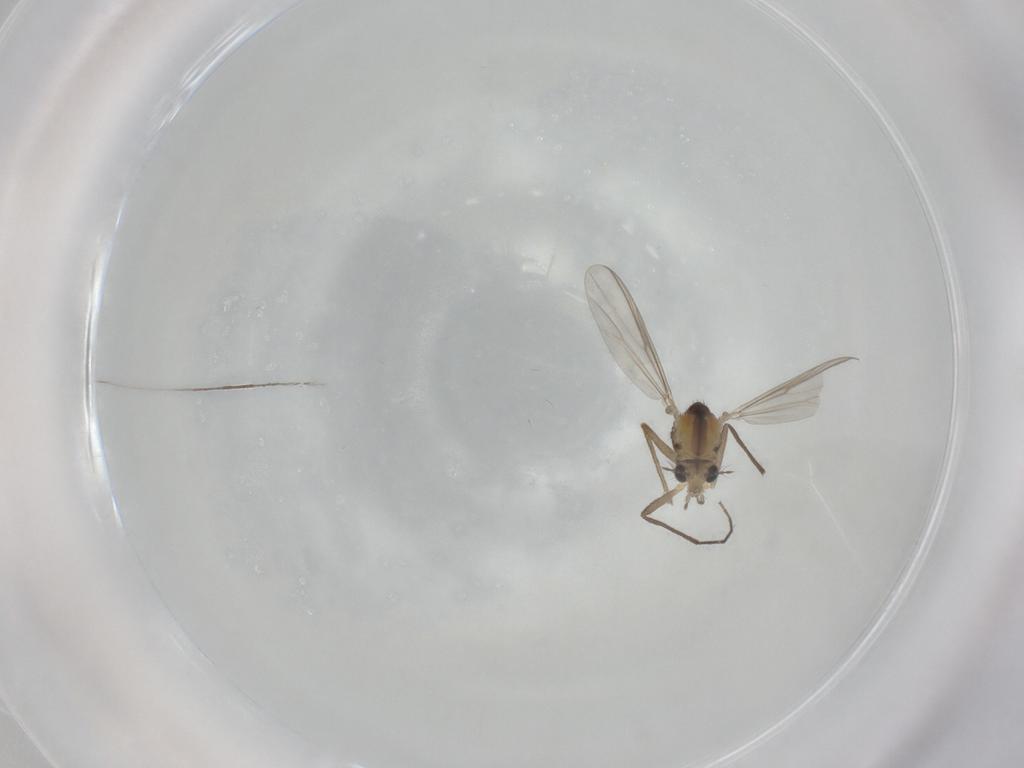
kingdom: Animalia
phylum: Arthropoda
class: Insecta
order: Diptera
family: Chironomidae
